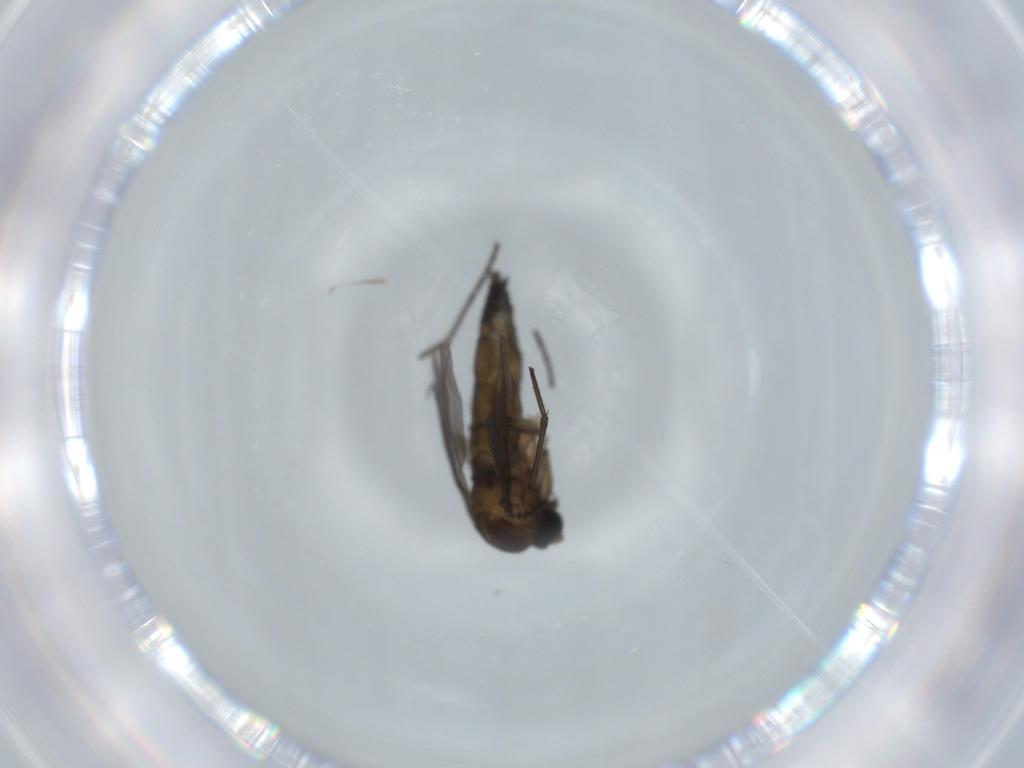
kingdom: Animalia
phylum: Arthropoda
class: Insecta
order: Diptera
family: Sciaridae
